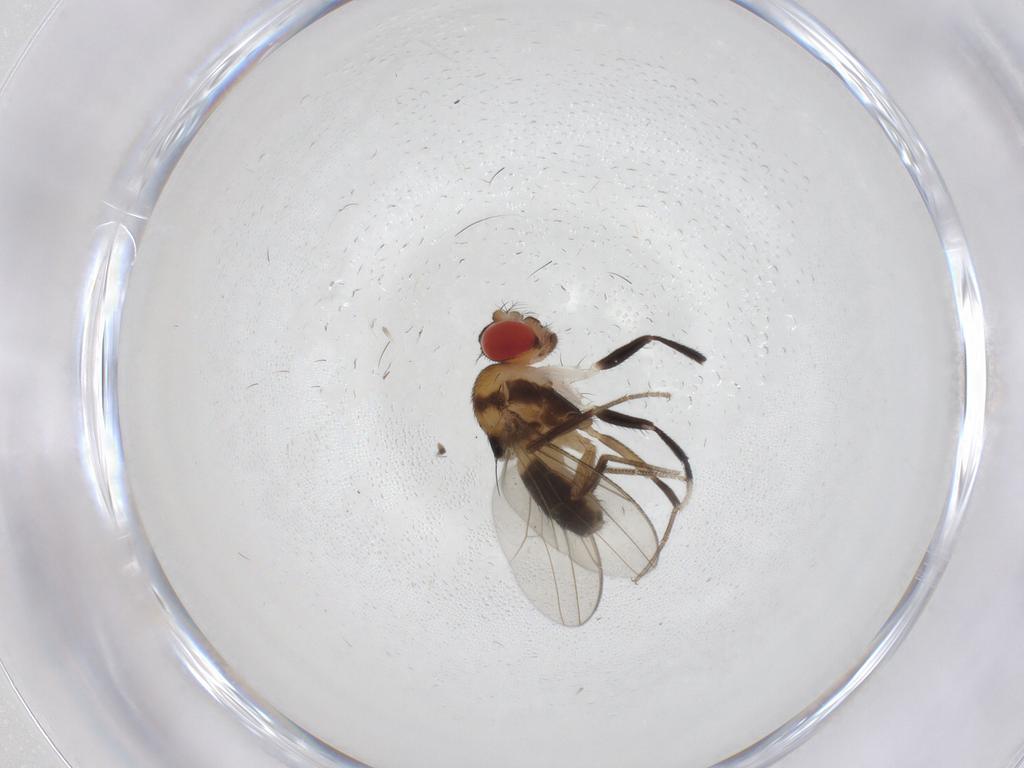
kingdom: Animalia
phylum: Arthropoda
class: Insecta
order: Diptera
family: Drosophilidae
